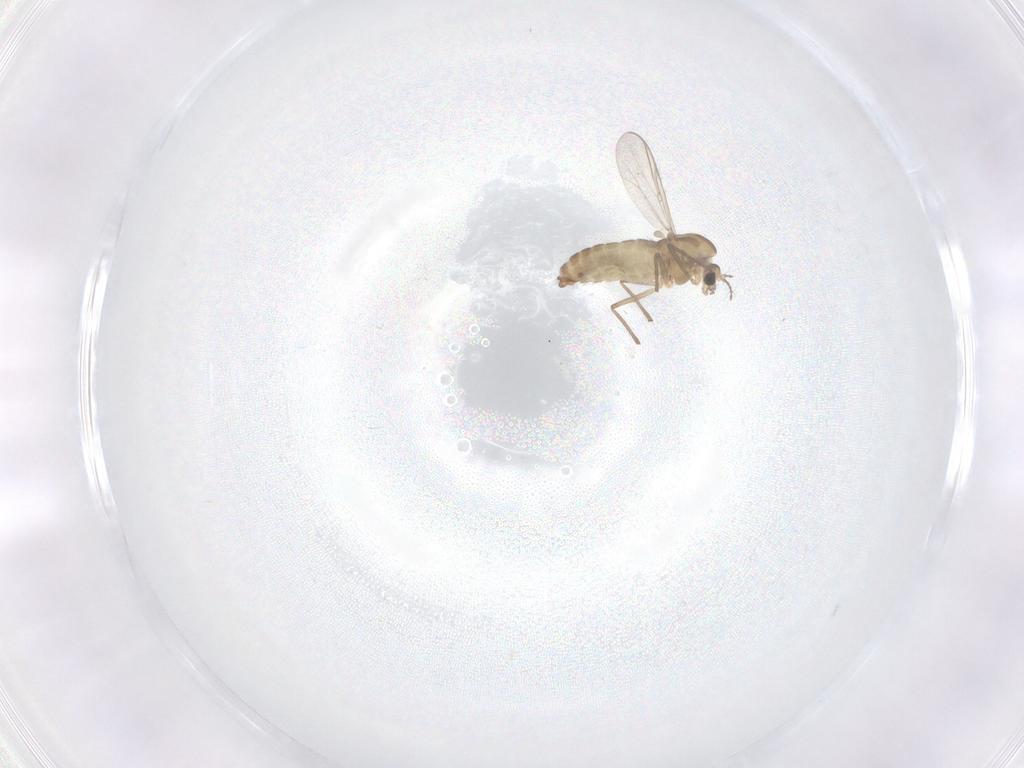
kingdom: Animalia
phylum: Arthropoda
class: Insecta
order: Diptera
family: Chironomidae
